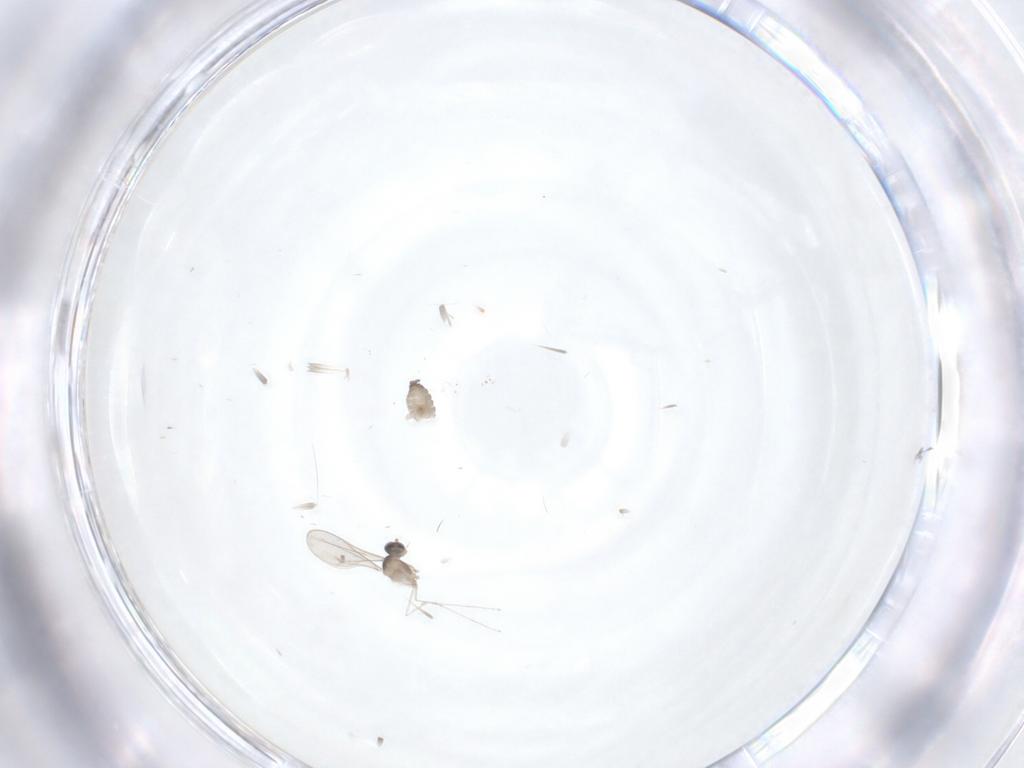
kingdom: Animalia
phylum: Arthropoda
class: Insecta
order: Diptera
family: Cecidomyiidae
